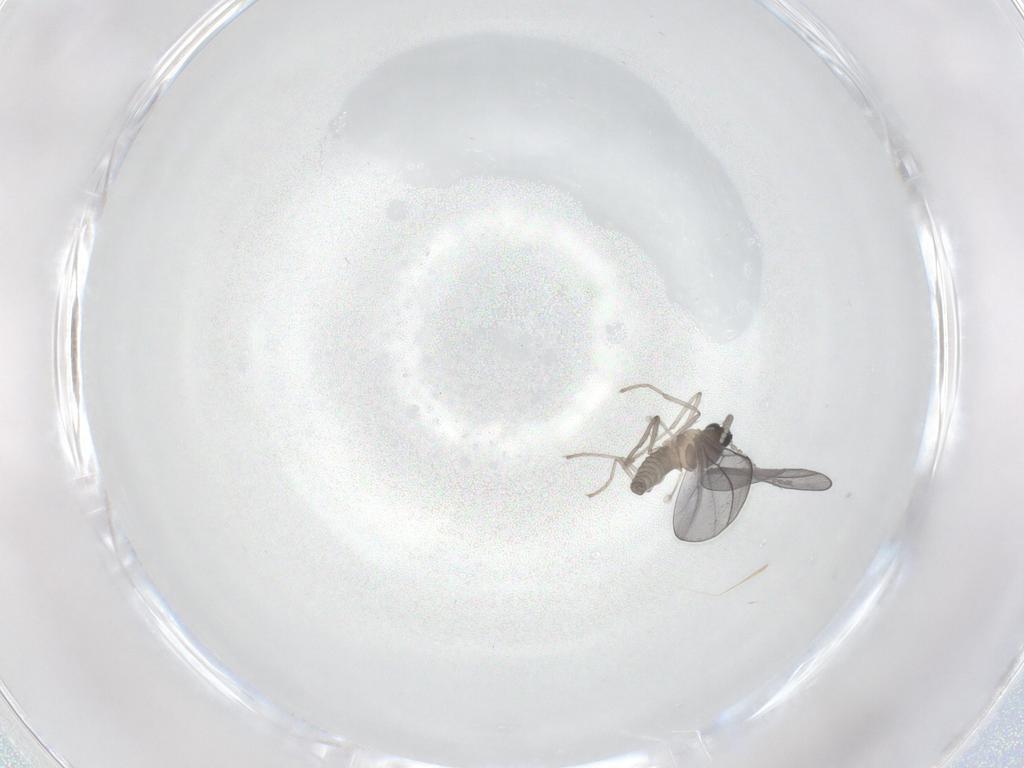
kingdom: Animalia
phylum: Arthropoda
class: Insecta
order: Diptera
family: Cecidomyiidae
